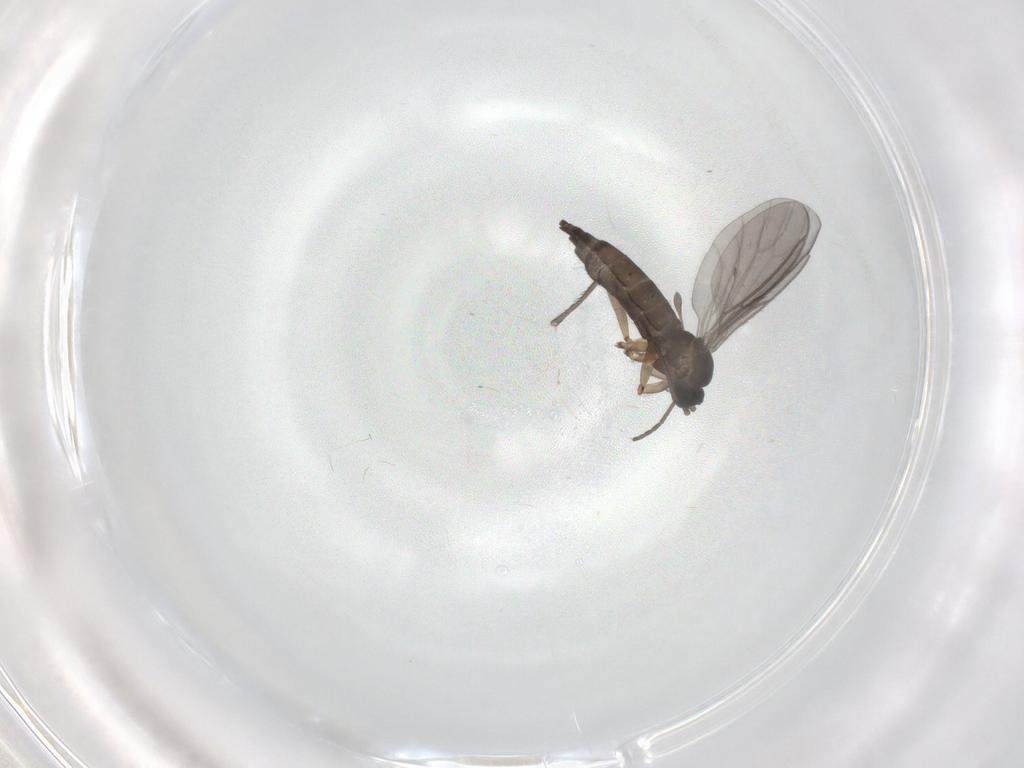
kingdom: Animalia
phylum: Arthropoda
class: Insecta
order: Diptera
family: Sciaridae
